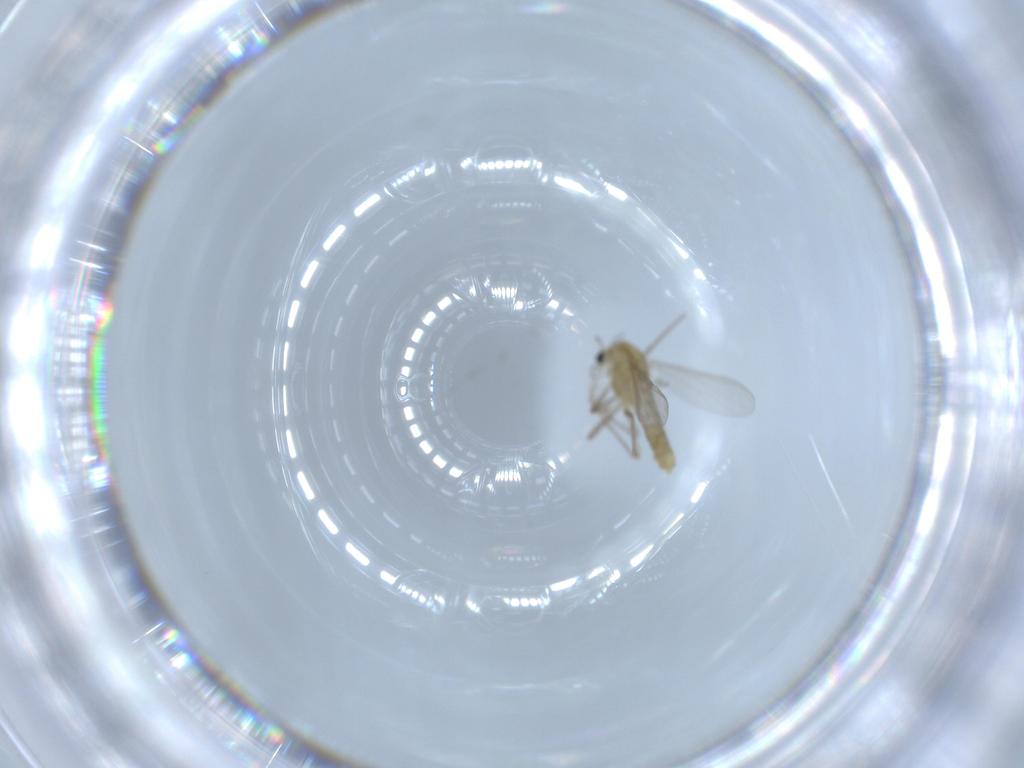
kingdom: Animalia
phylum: Arthropoda
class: Insecta
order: Diptera
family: Chironomidae
